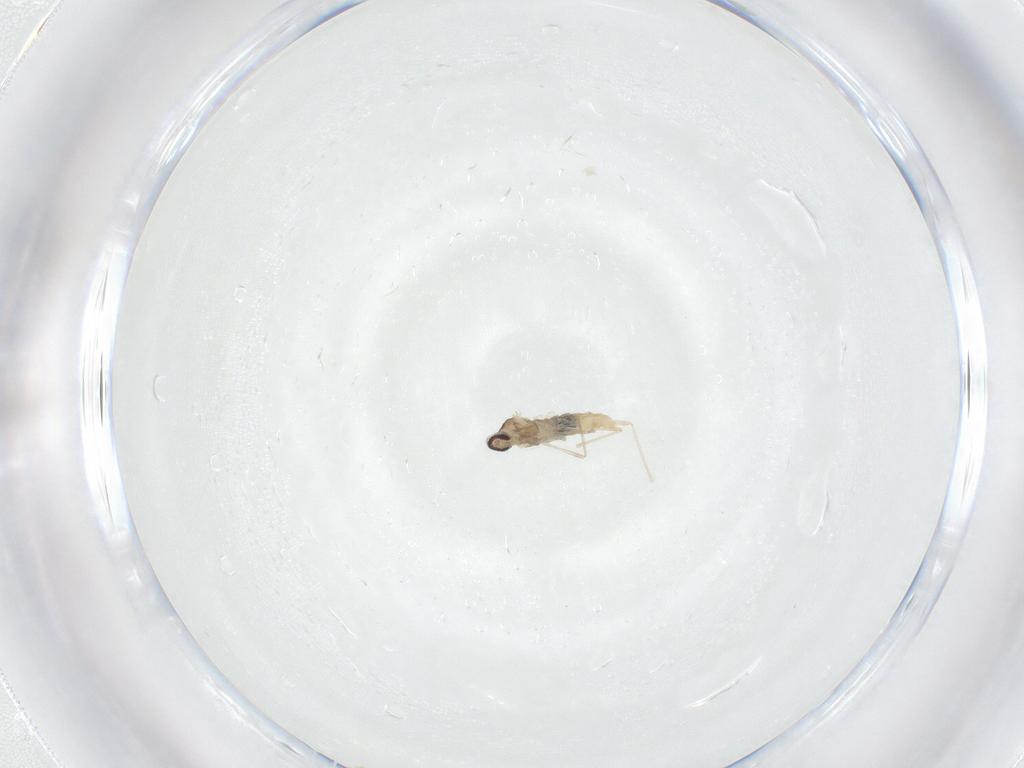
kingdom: Animalia
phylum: Arthropoda
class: Insecta
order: Diptera
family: Cecidomyiidae
